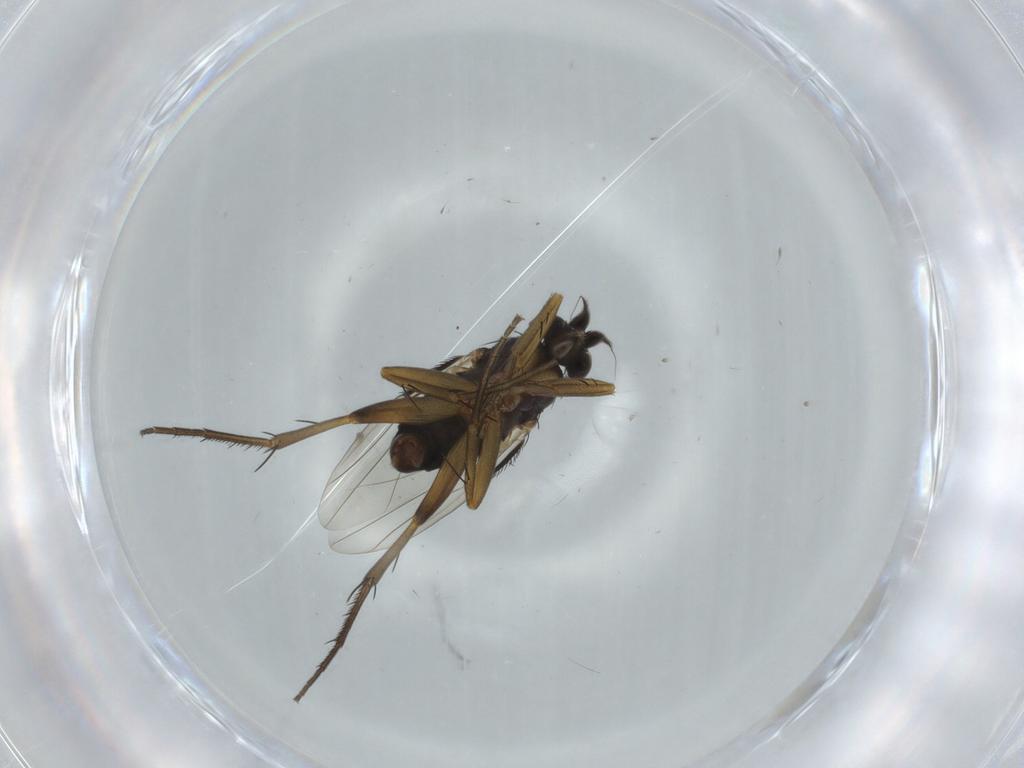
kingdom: Animalia
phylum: Arthropoda
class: Insecta
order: Diptera
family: Phoridae
